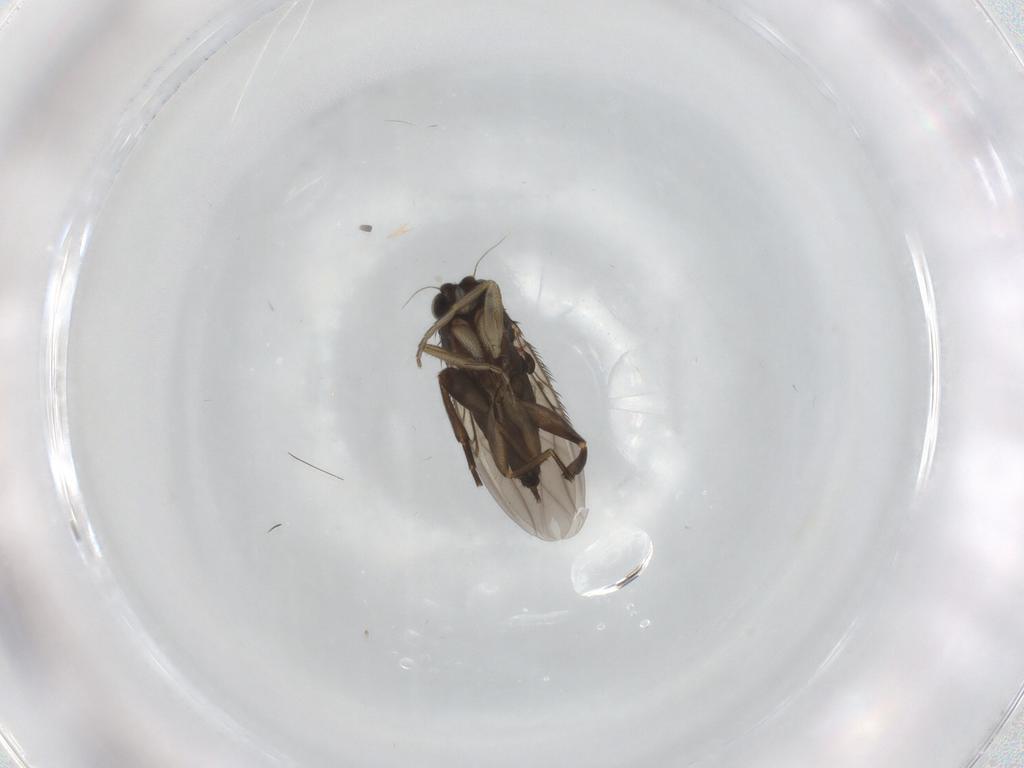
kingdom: Animalia
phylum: Arthropoda
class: Insecta
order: Diptera
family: Phoridae
